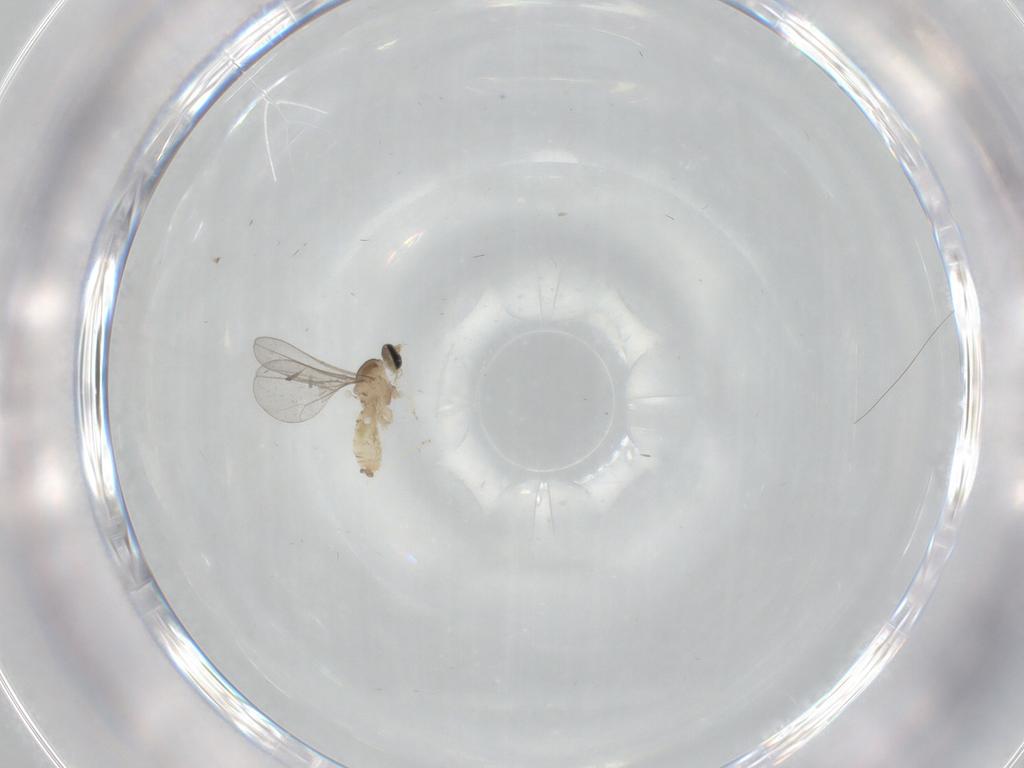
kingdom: Animalia
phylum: Arthropoda
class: Insecta
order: Diptera
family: Cecidomyiidae
